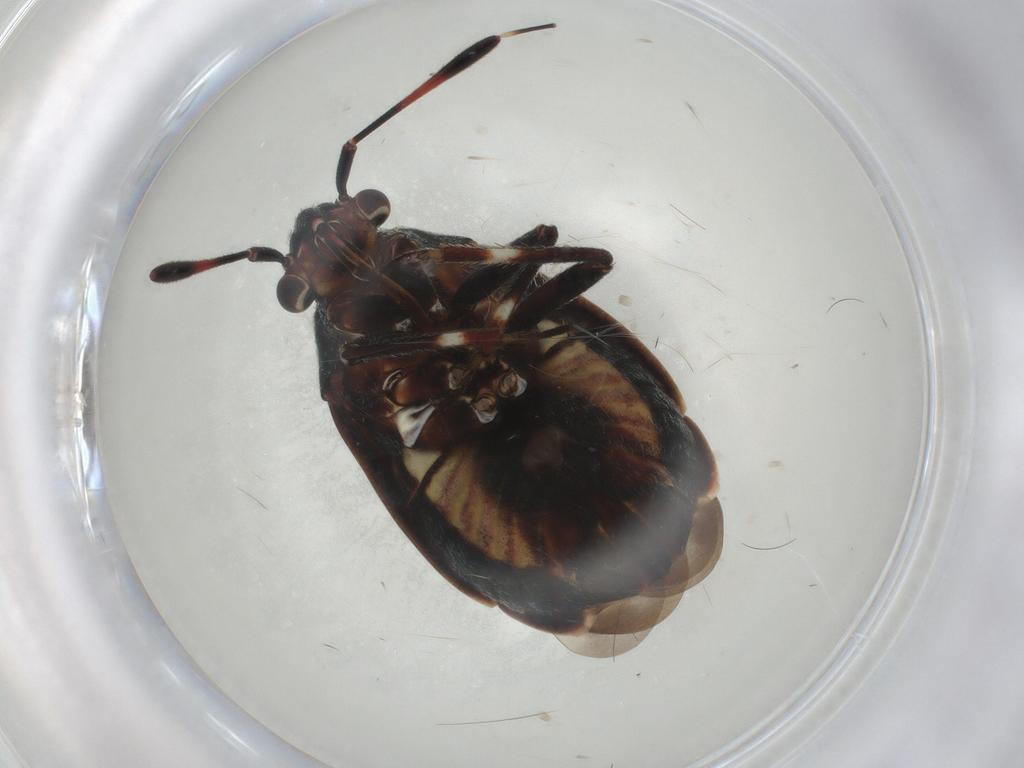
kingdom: Animalia
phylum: Arthropoda
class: Insecta
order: Hemiptera
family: Miridae
